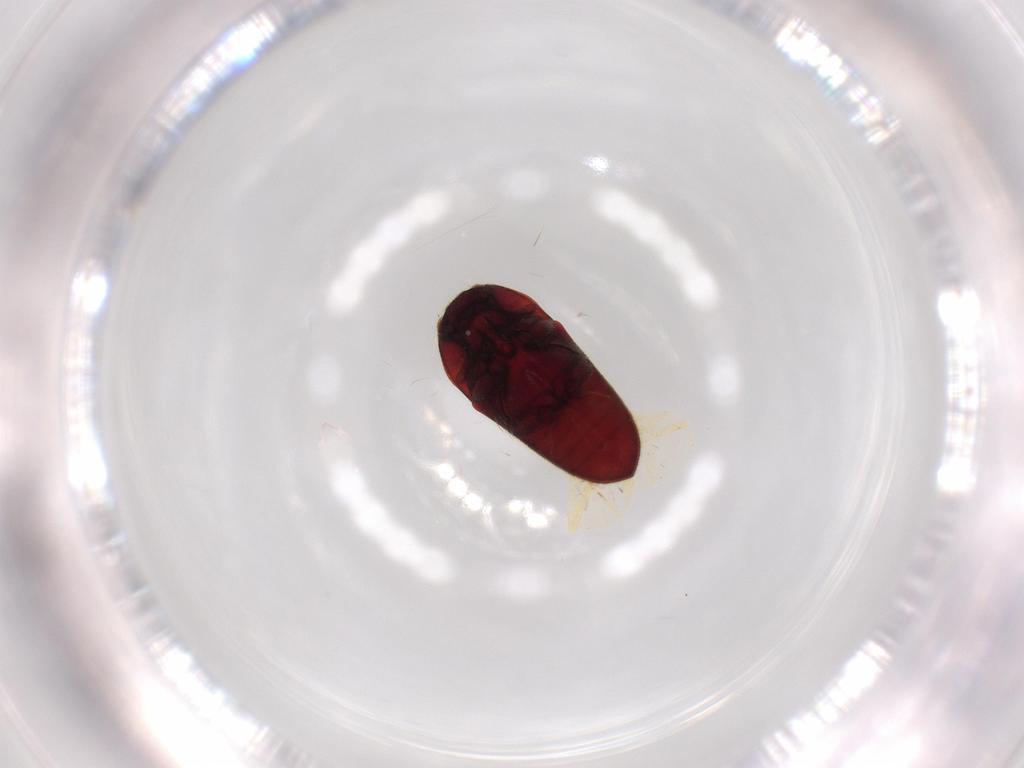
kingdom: Animalia
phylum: Arthropoda
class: Insecta
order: Coleoptera
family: Throscidae
